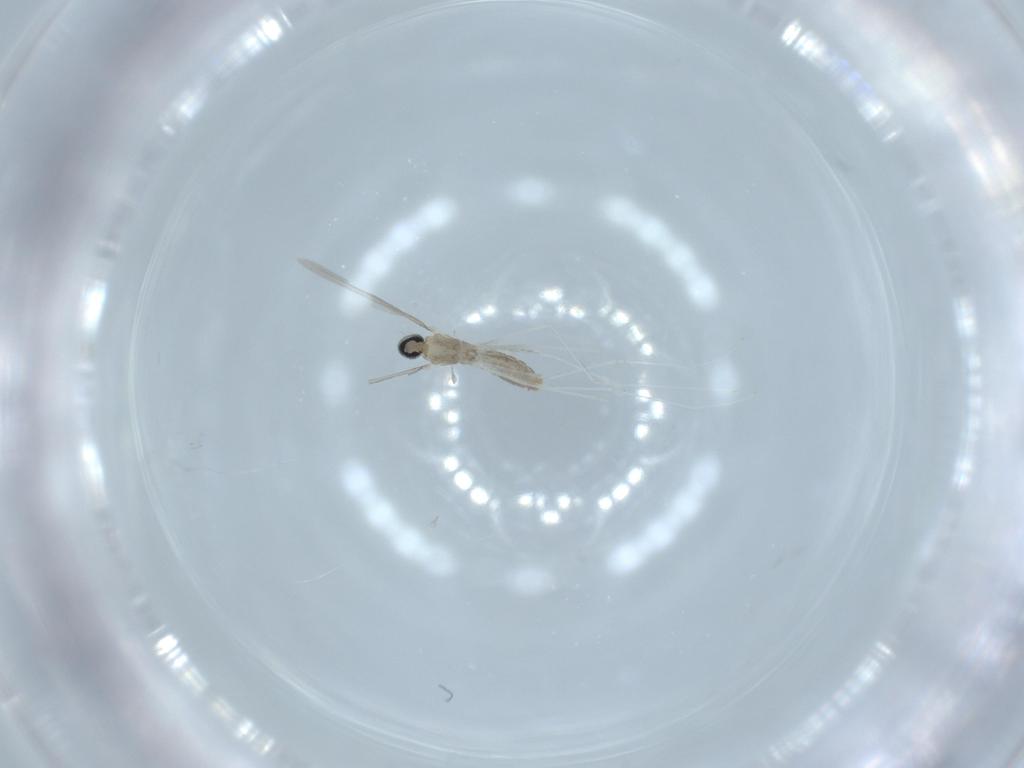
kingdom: Animalia
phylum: Arthropoda
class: Insecta
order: Diptera
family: Cecidomyiidae
